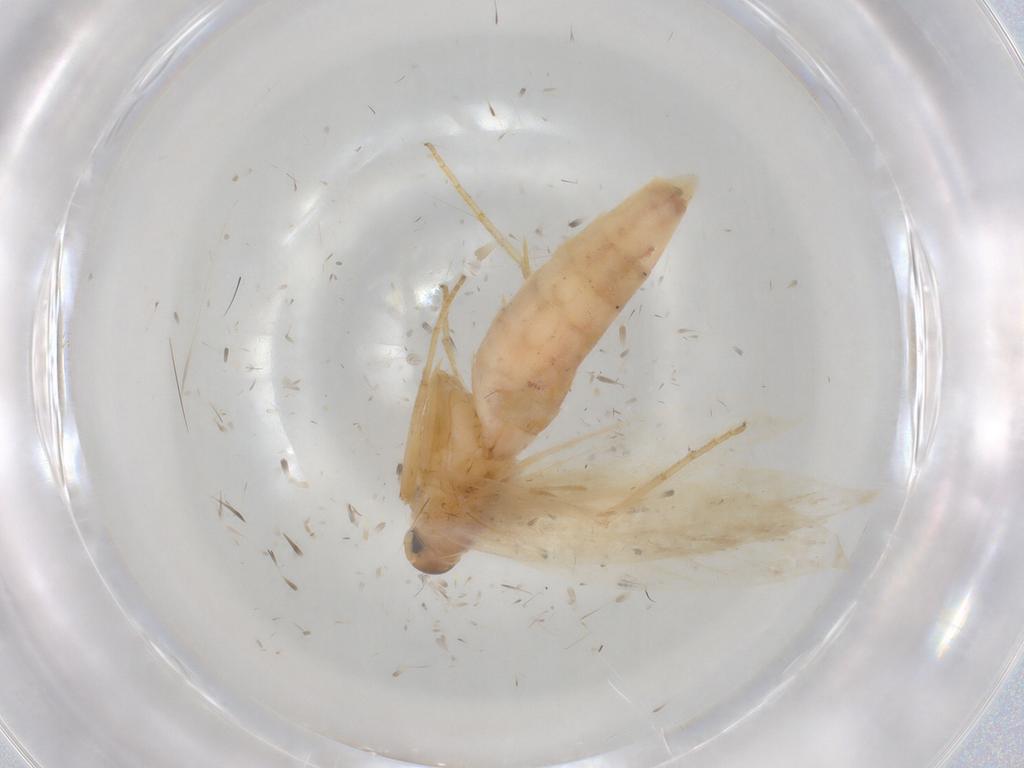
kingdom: Animalia
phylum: Arthropoda
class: Insecta
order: Lepidoptera
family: Gelechiidae
